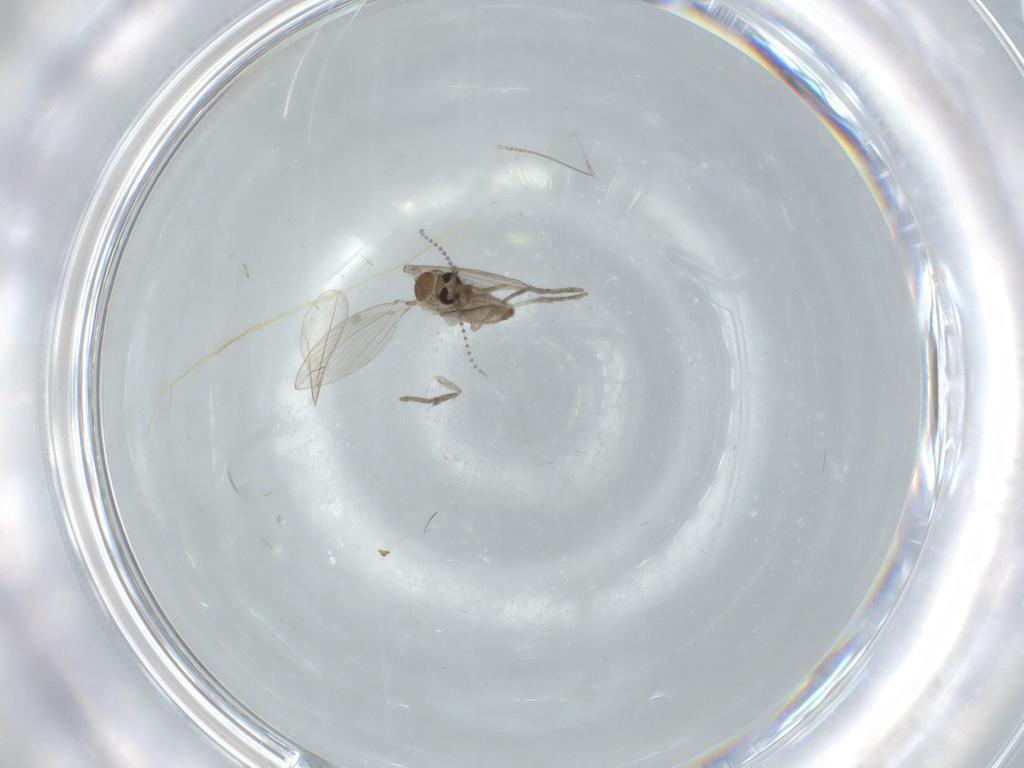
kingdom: Animalia
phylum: Arthropoda
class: Insecta
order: Diptera
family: Psychodidae
